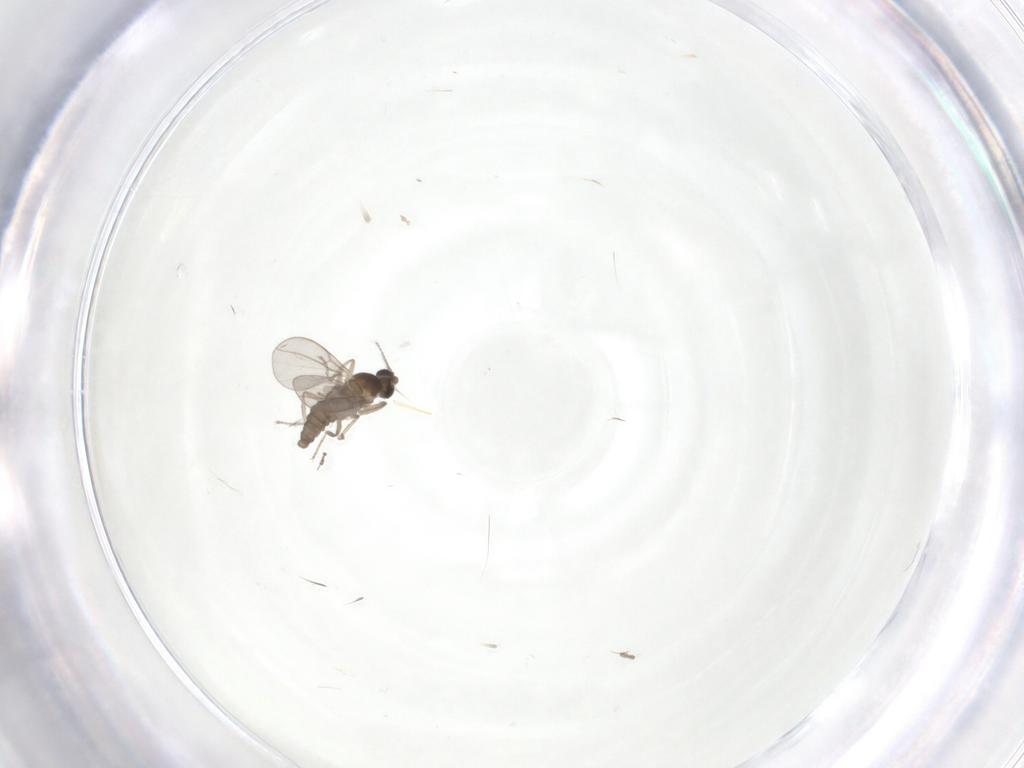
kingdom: Animalia
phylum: Arthropoda
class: Insecta
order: Diptera
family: Cecidomyiidae
